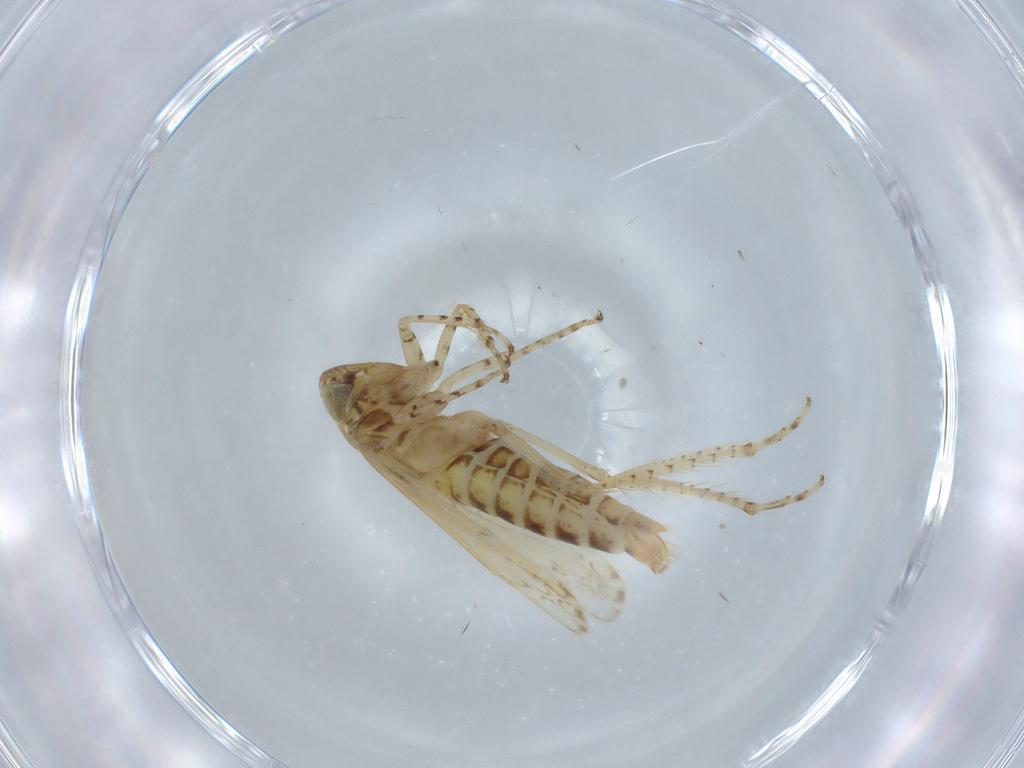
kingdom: Animalia
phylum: Arthropoda
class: Insecta
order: Hemiptera
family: Cicadellidae
